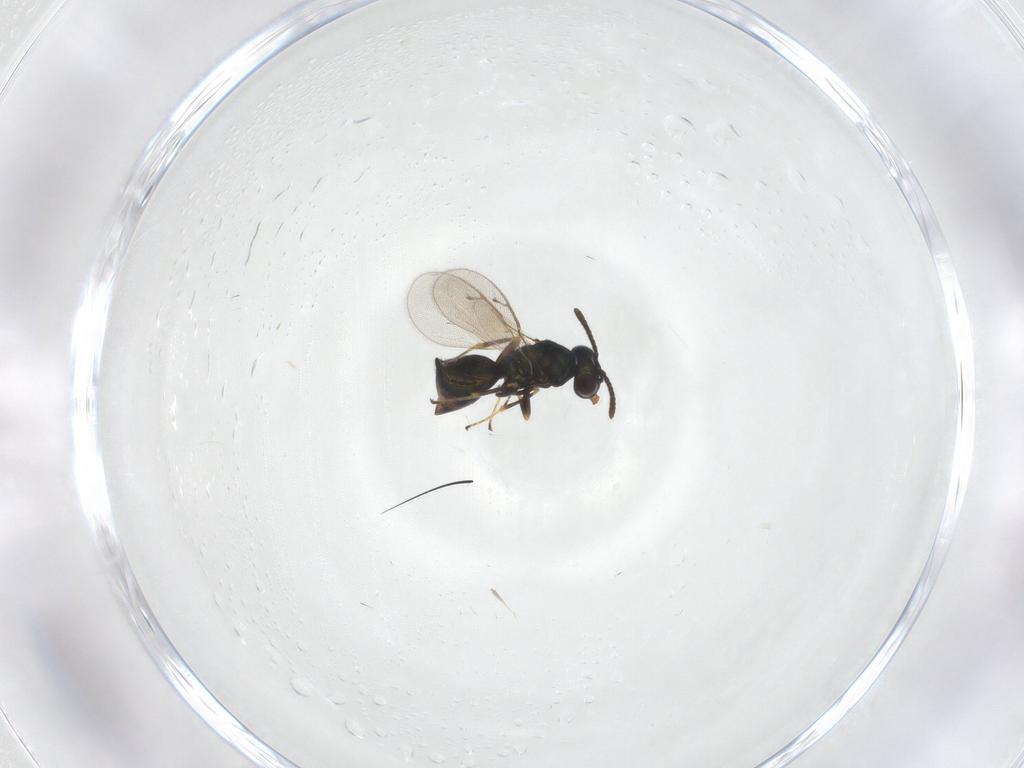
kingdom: Animalia
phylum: Arthropoda
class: Insecta
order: Hymenoptera
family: Pteromalidae
